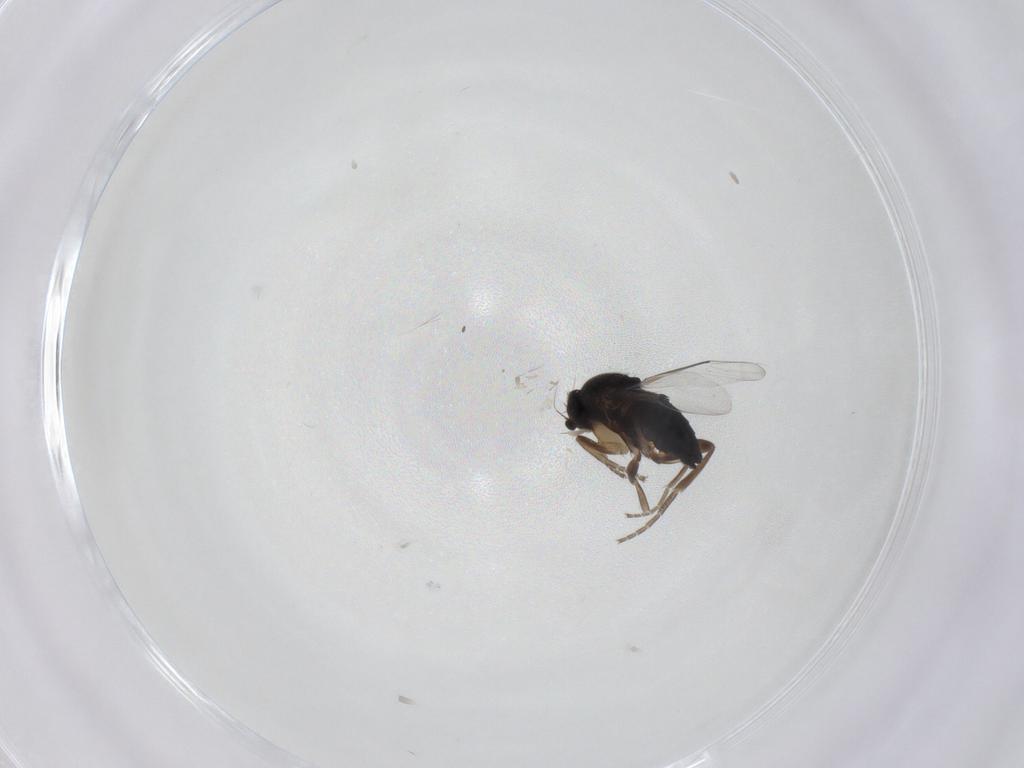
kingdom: Animalia
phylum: Arthropoda
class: Insecta
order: Diptera
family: Phoridae
